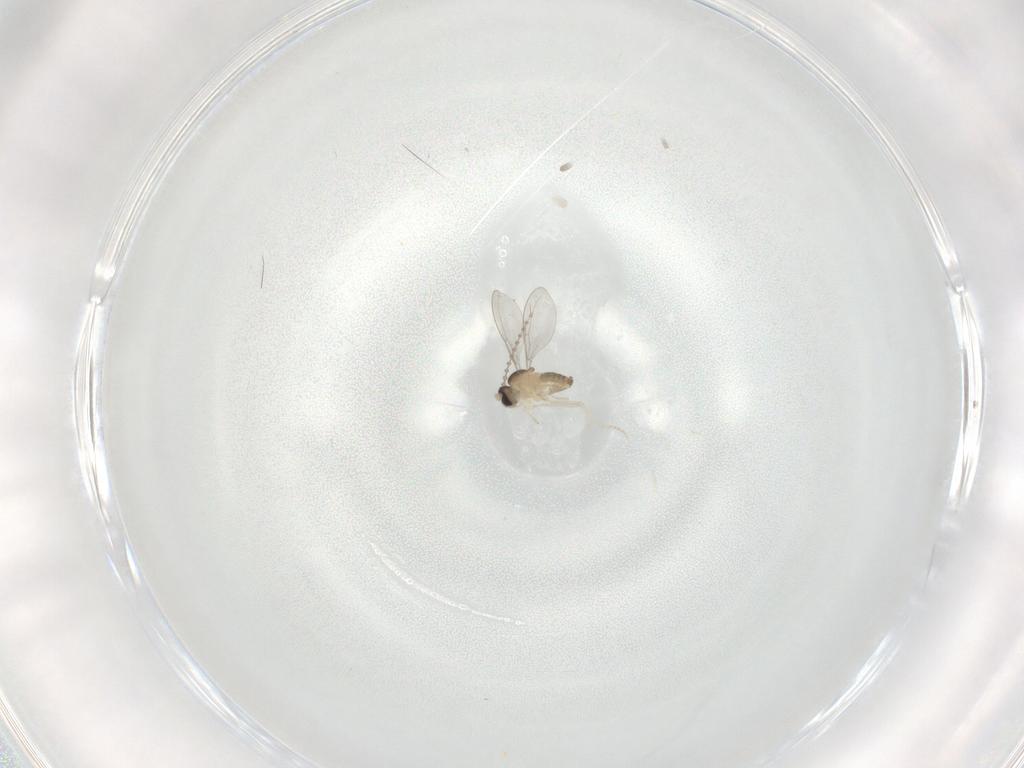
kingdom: Animalia
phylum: Arthropoda
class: Insecta
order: Diptera
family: Cecidomyiidae
